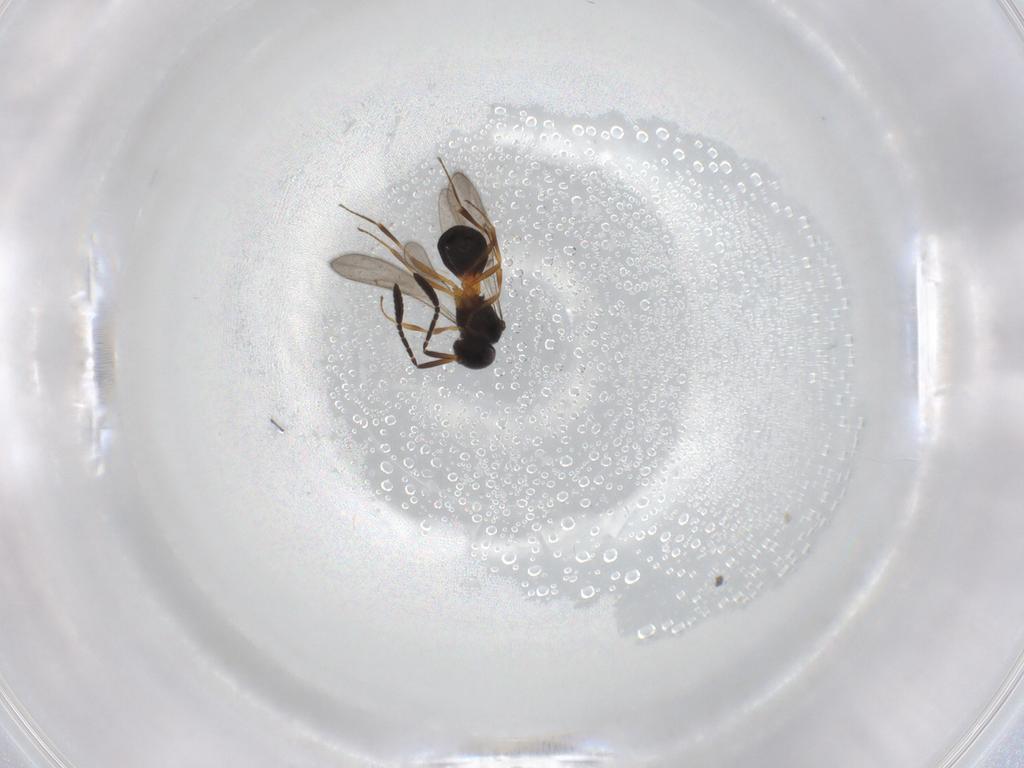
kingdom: Animalia
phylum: Arthropoda
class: Insecta
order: Hymenoptera
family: Scelionidae
